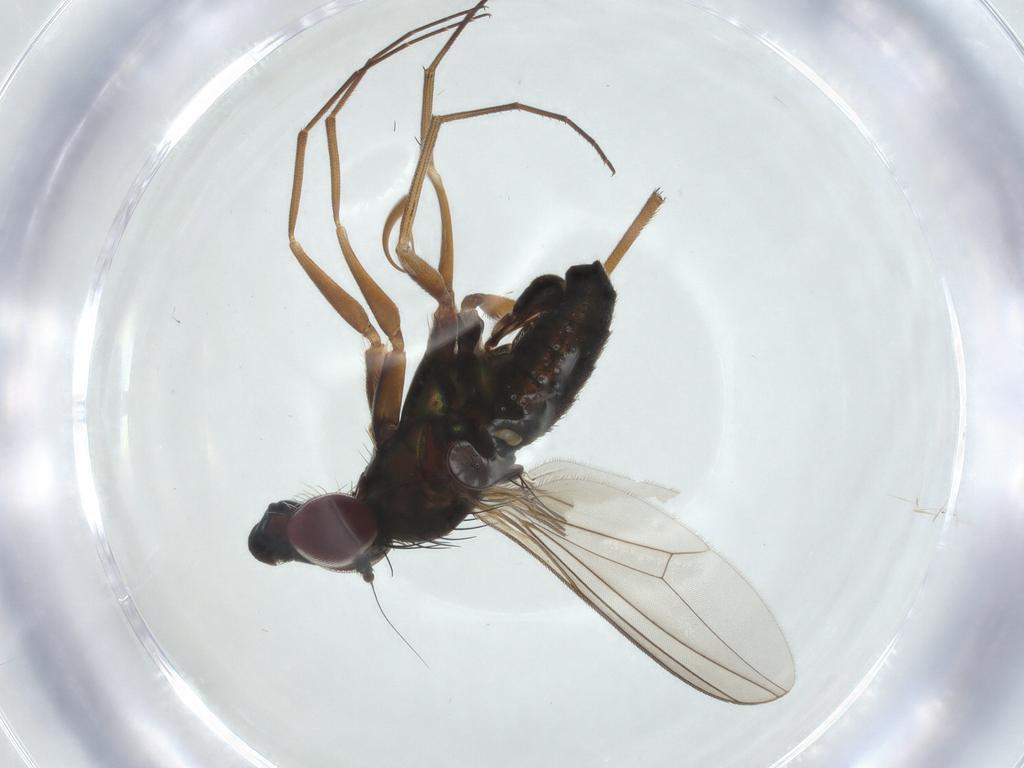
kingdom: Animalia
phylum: Arthropoda
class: Insecta
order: Diptera
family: Dolichopodidae
